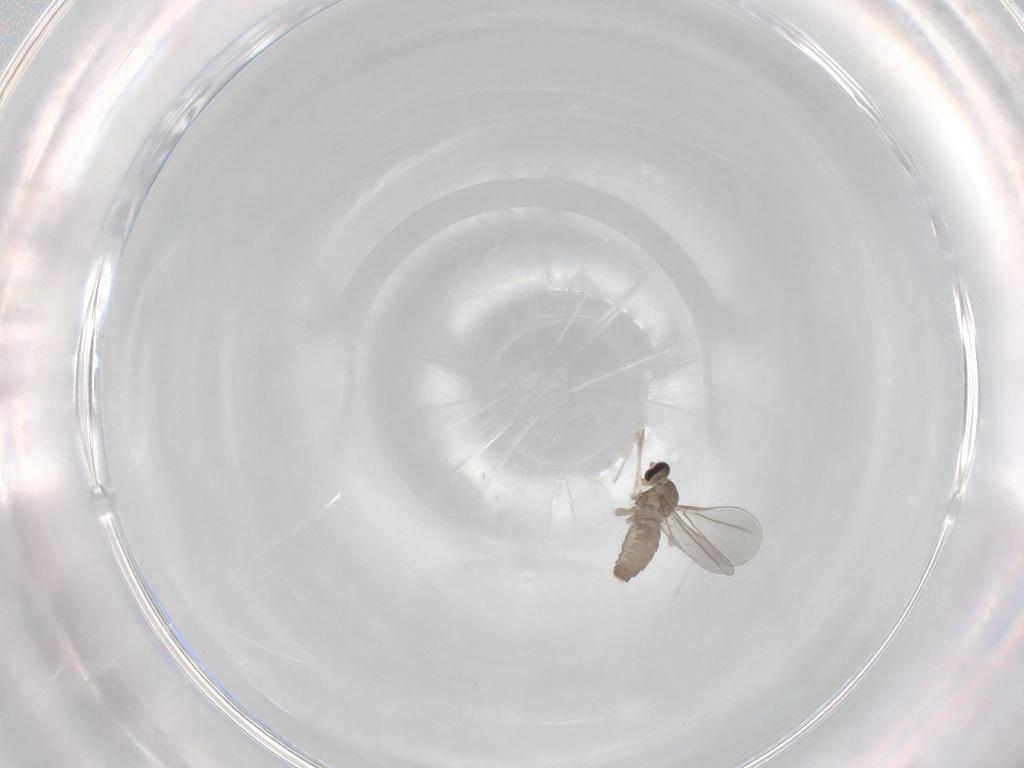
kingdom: Animalia
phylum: Arthropoda
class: Insecta
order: Diptera
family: Cecidomyiidae
